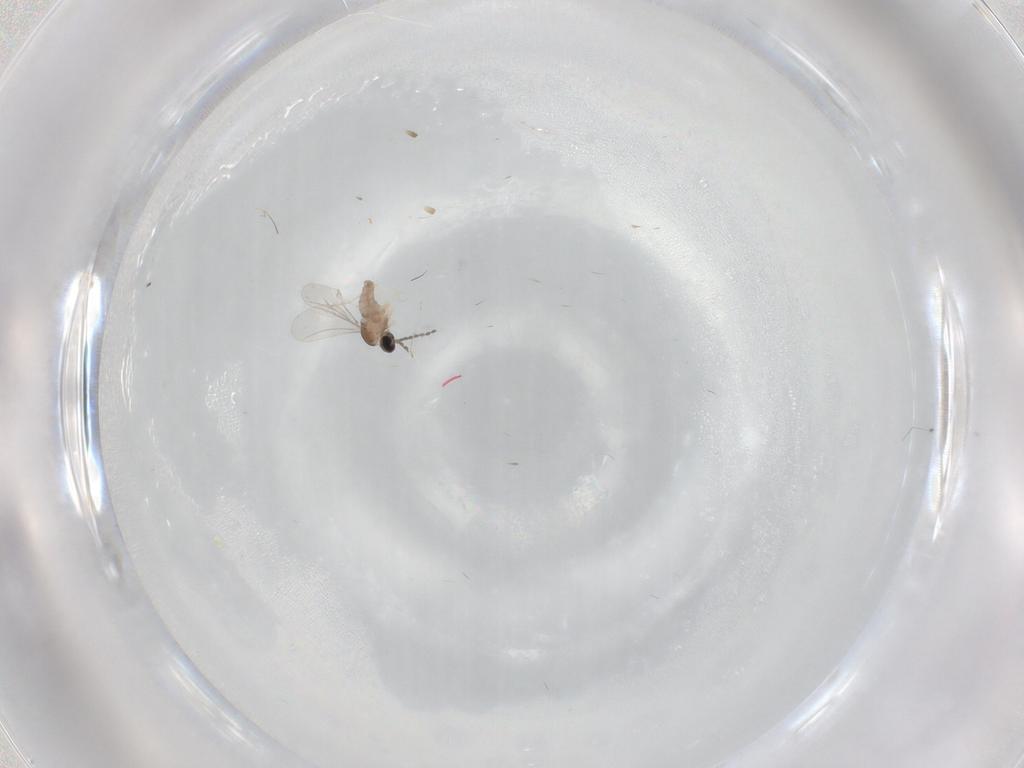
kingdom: Animalia
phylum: Arthropoda
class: Insecta
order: Diptera
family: Cecidomyiidae
